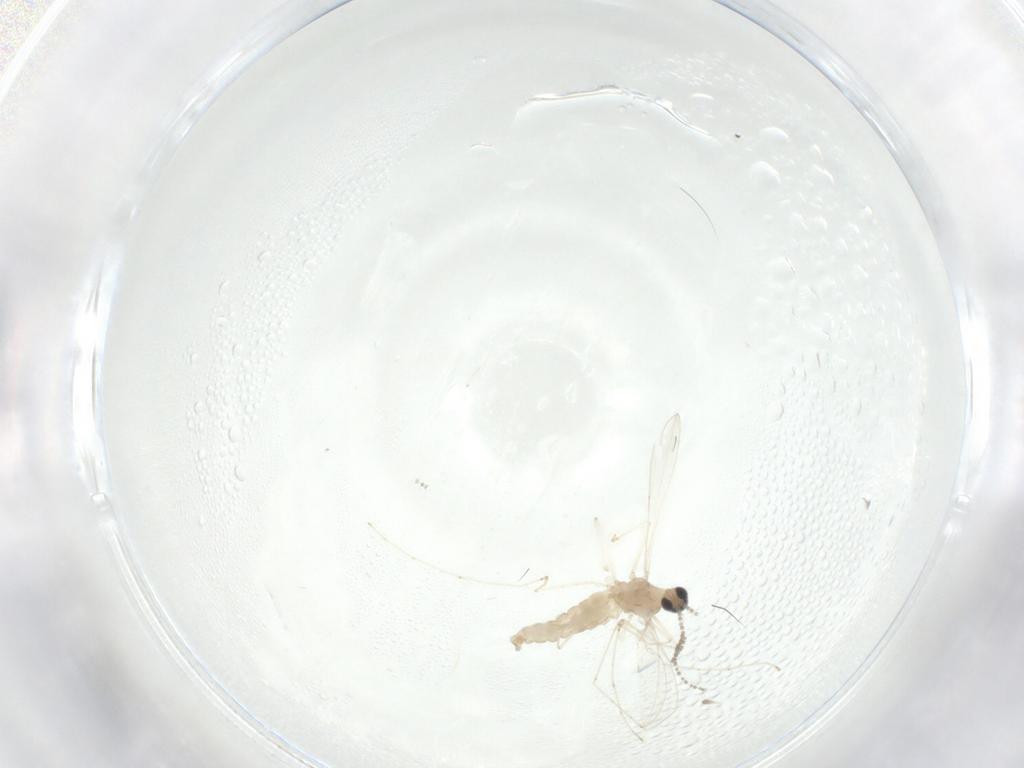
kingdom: Animalia
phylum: Arthropoda
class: Insecta
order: Diptera
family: Cecidomyiidae
